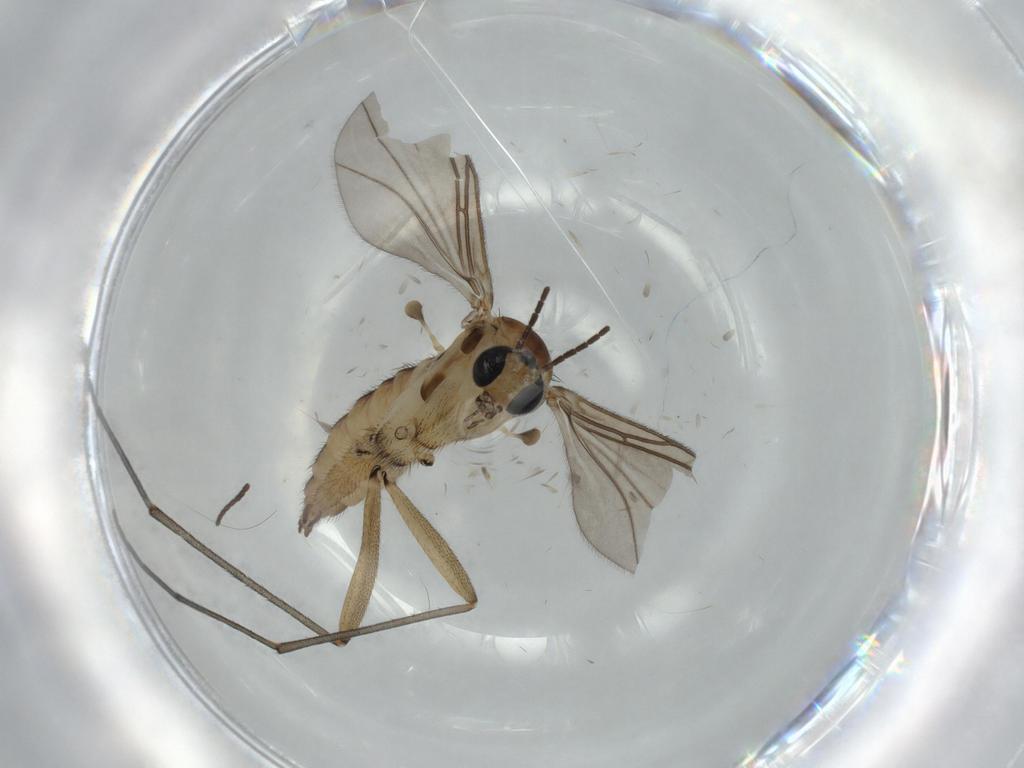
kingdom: Animalia
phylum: Arthropoda
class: Insecta
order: Diptera
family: Sciaridae
